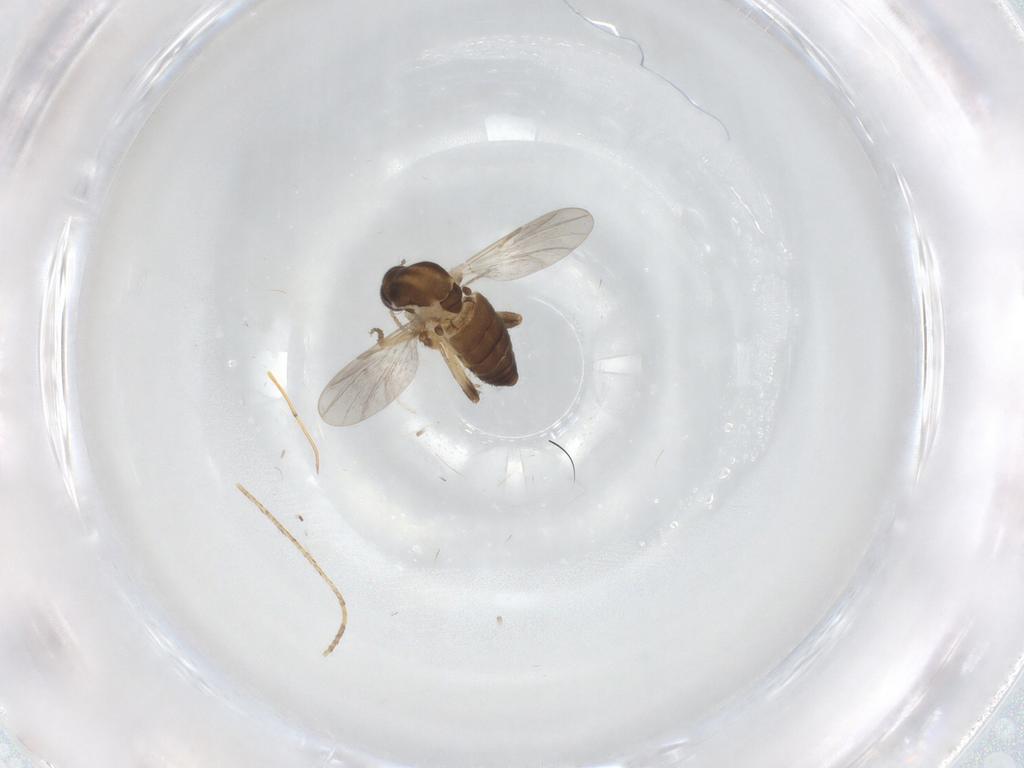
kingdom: Animalia
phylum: Arthropoda
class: Insecta
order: Diptera
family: Ceratopogonidae
